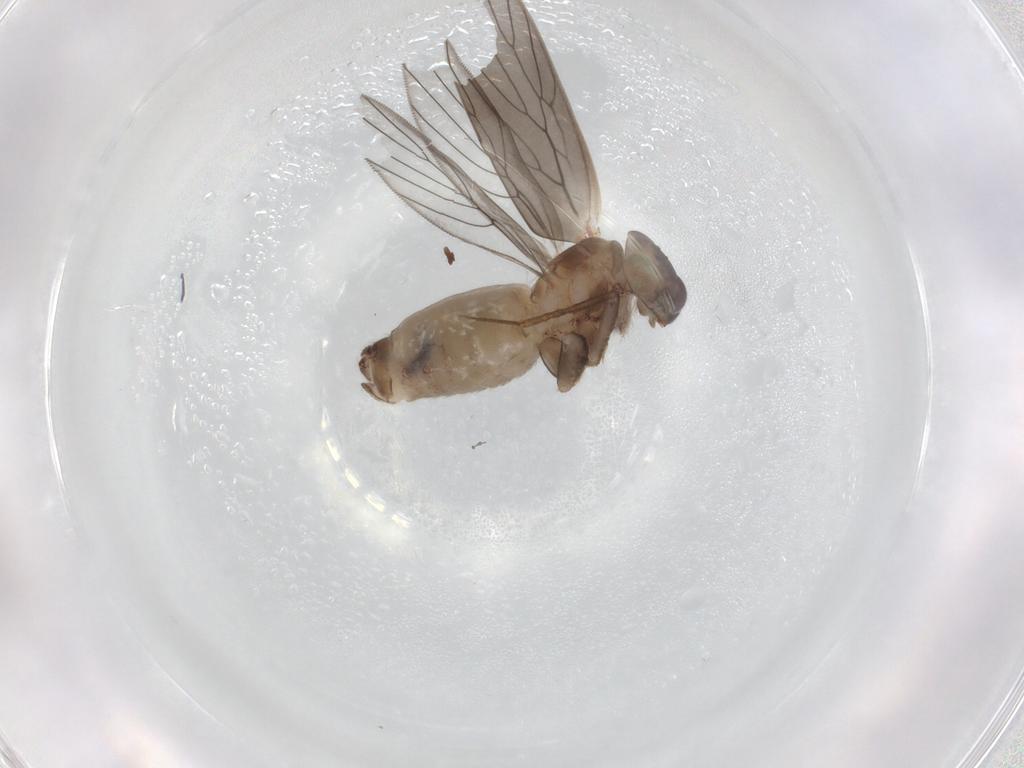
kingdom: Animalia
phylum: Arthropoda
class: Insecta
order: Psocodea
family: Lepidopsocidae
